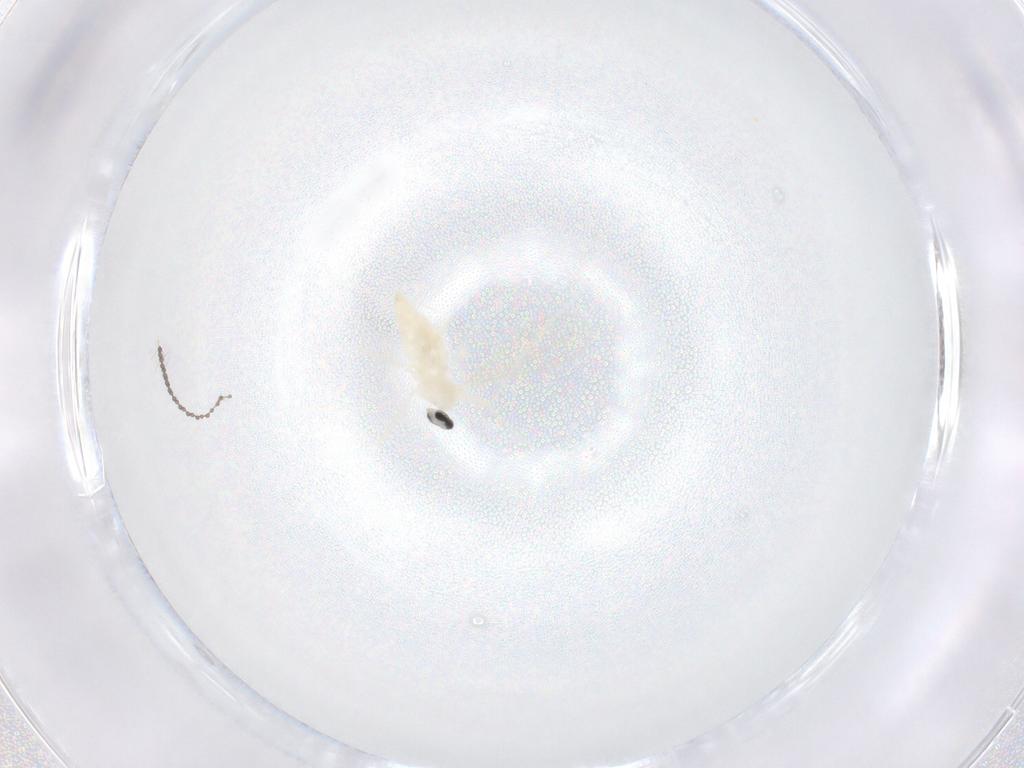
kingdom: Animalia
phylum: Arthropoda
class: Insecta
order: Diptera
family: Cecidomyiidae
